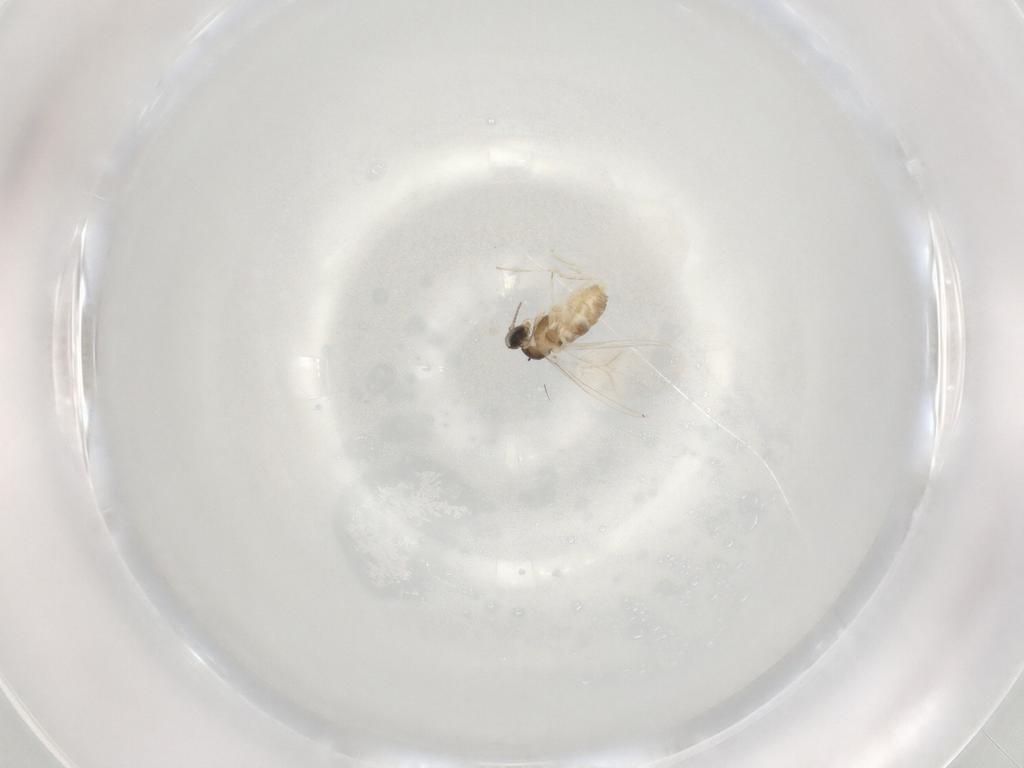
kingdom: Animalia
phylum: Arthropoda
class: Insecta
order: Diptera
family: Cecidomyiidae
